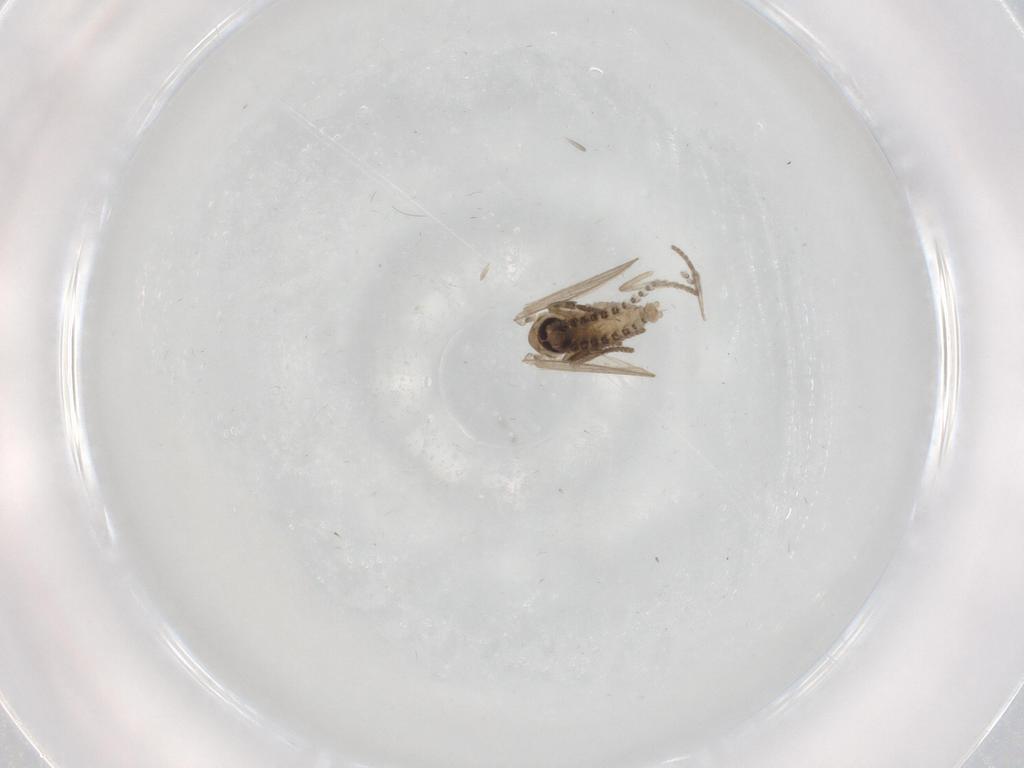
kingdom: Animalia
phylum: Arthropoda
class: Insecta
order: Diptera
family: Psychodidae
